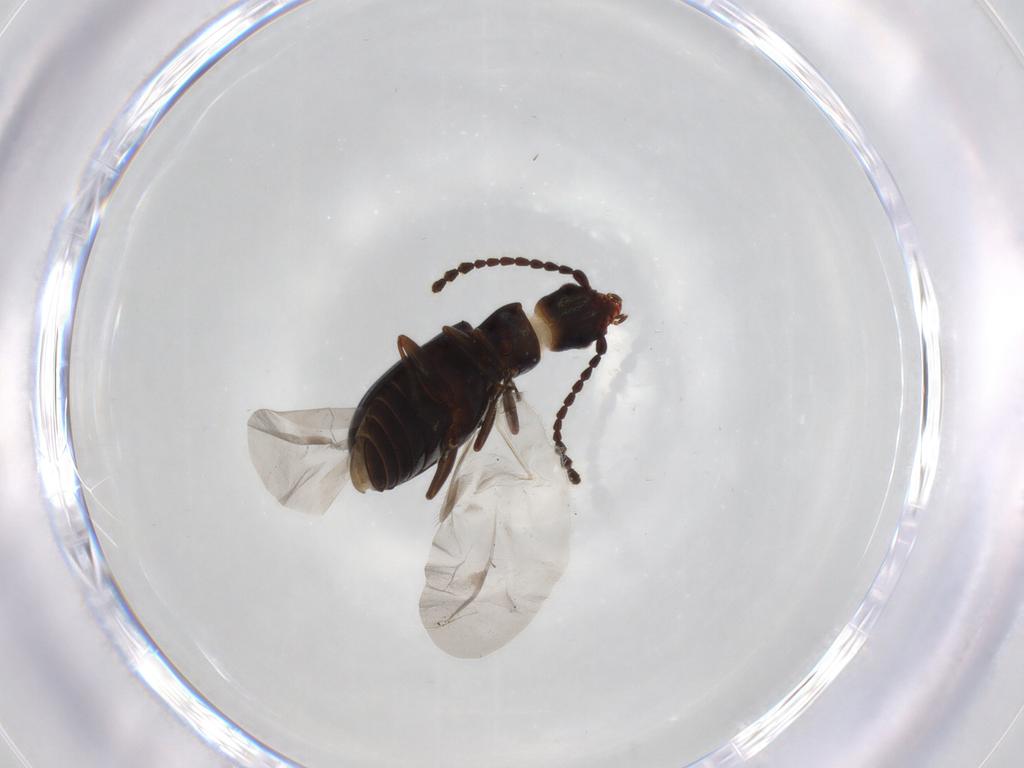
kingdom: Animalia
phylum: Arthropoda
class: Insecta
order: Coleoptera
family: Laemophloeidae
